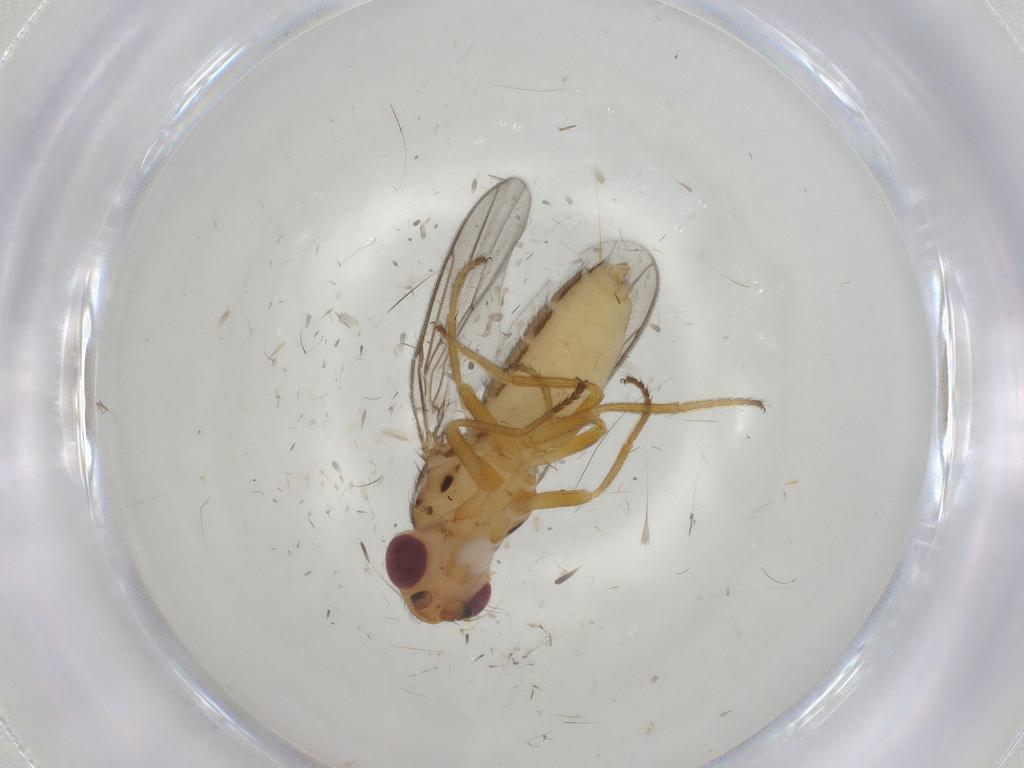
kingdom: Animalia
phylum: Arthropoda
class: Insecta
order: Diptera
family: Chloropidae
